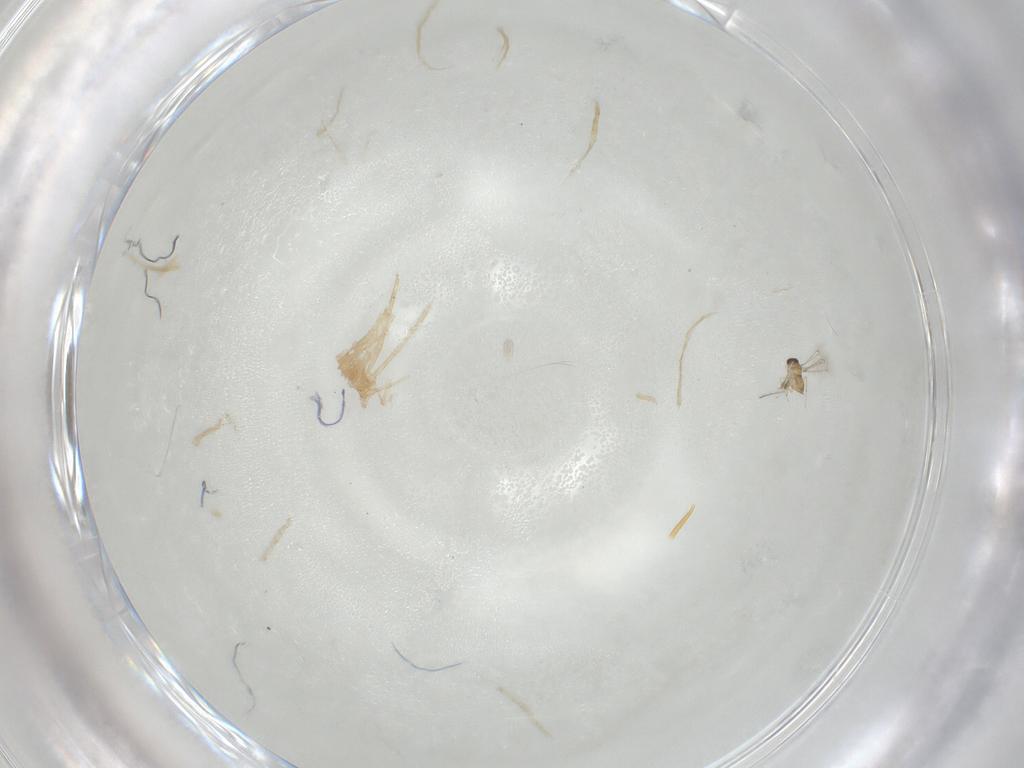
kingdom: Animalia
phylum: Arthropoda
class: Insecta
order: Hymenoptera
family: Mymaridae
